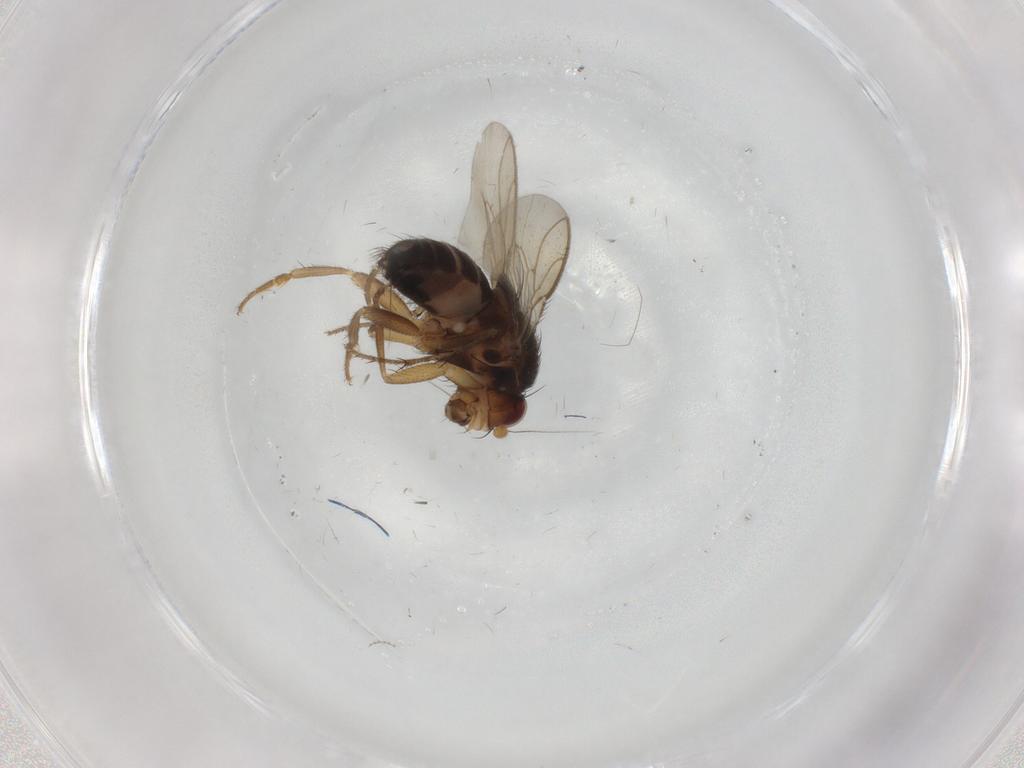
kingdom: Animalia
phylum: Arthropoda
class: Insecta
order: Diptera
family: Sphaeroceridae
